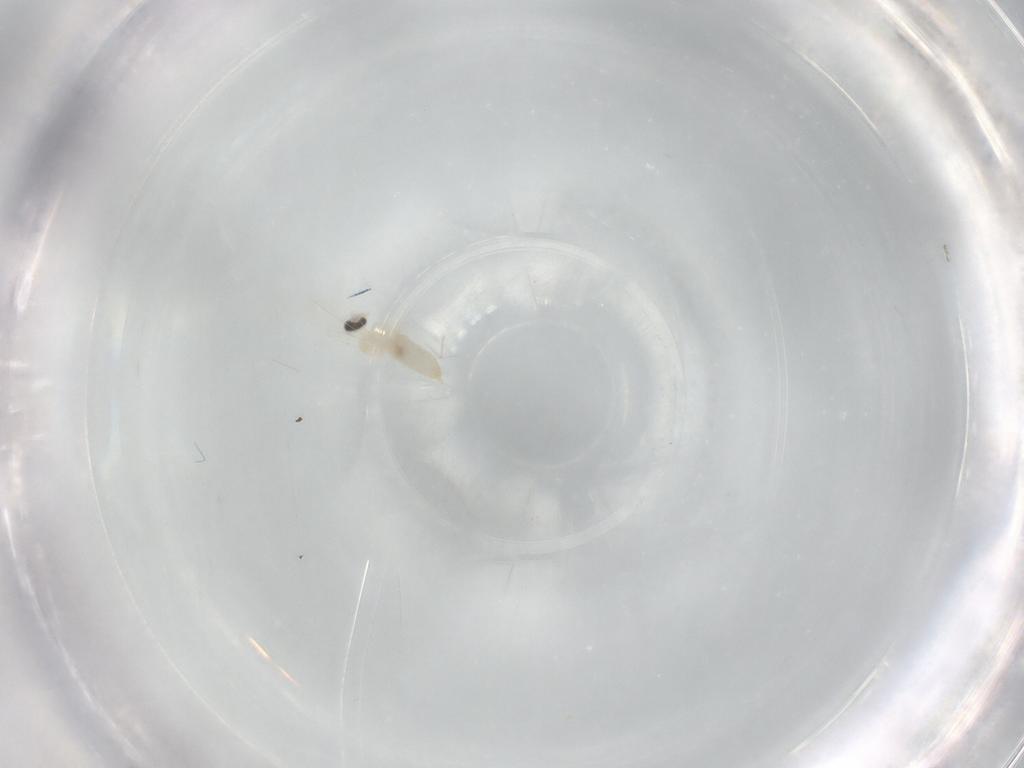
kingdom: Animalia
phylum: Arthropoda
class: Insecta
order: Diptera
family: Cecidomyiidae
